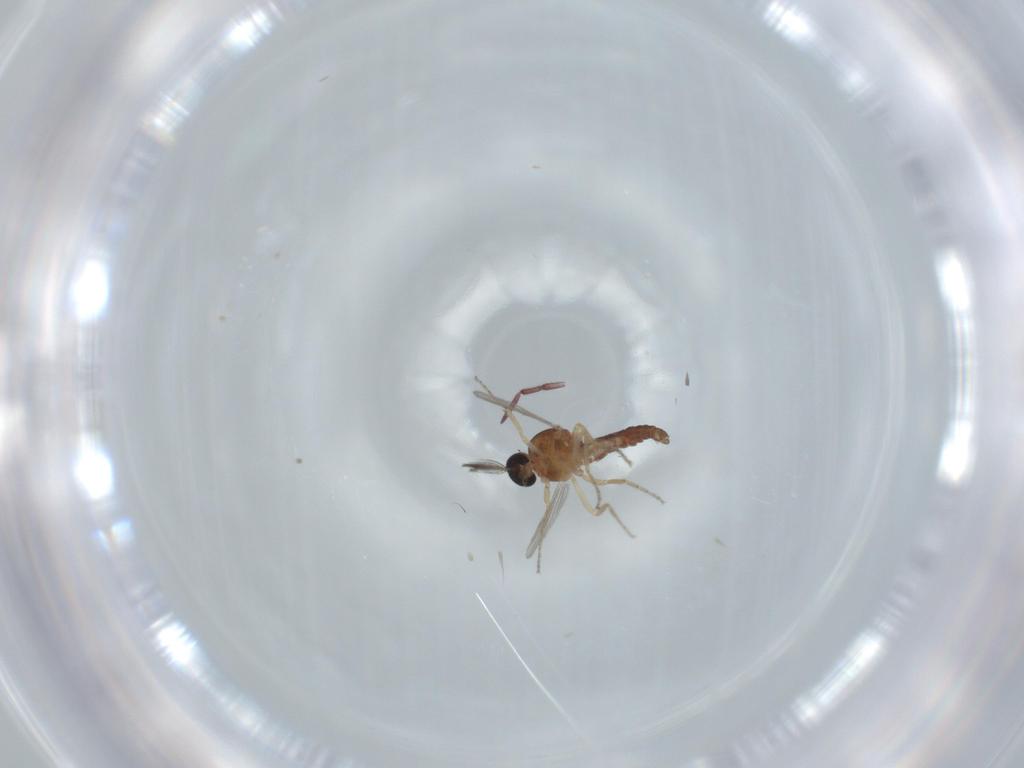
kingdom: Animalia
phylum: Arthropoda
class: Insecta
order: Diptera
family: Ceratopogonidae
